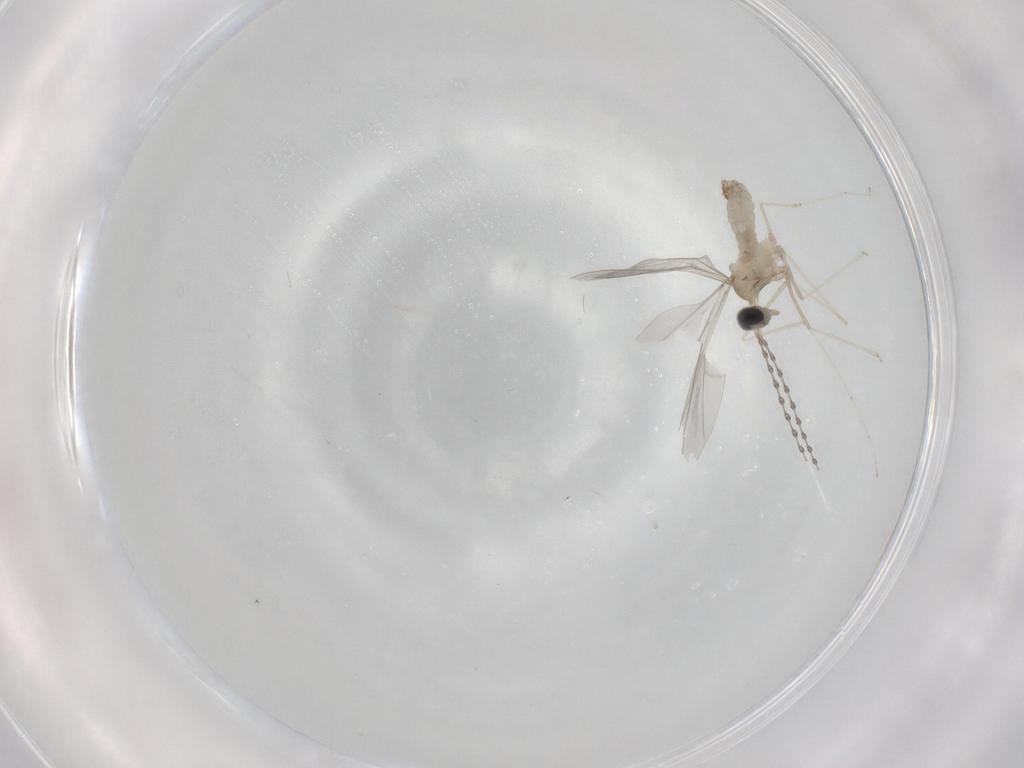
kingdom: Animalia
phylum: Arthropoda
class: Insecta
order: Diptera
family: Cecidomyiidae
